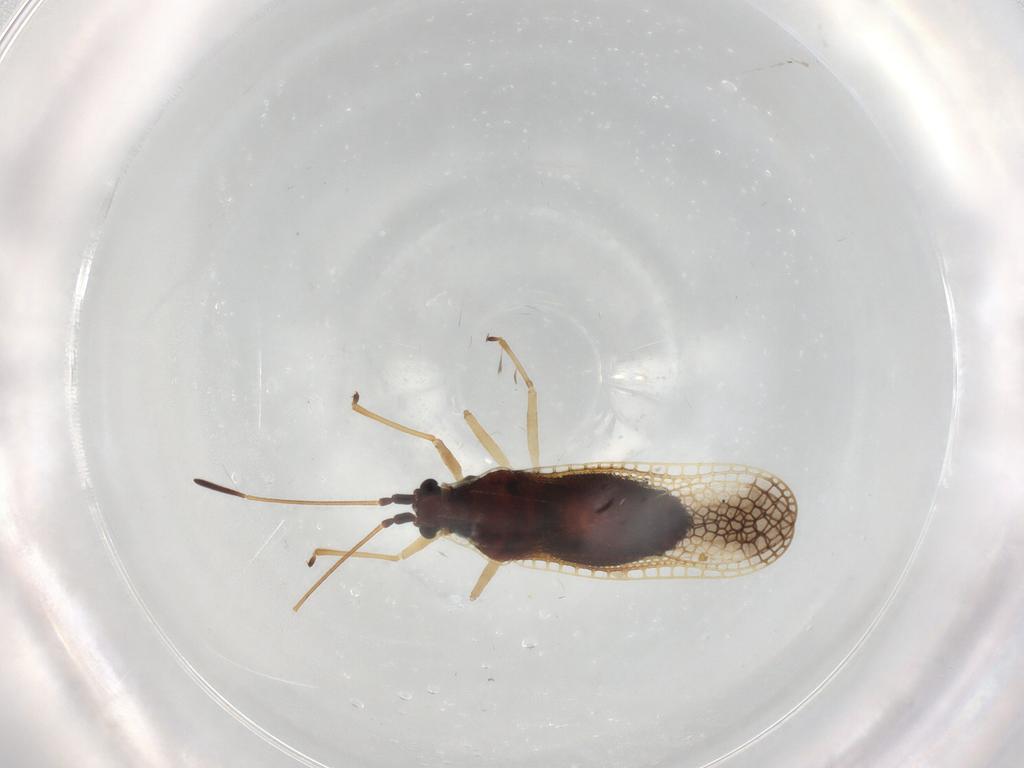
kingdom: Animalia
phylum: Arthropoda
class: Insecta
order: Hemiptera
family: Tingidae
